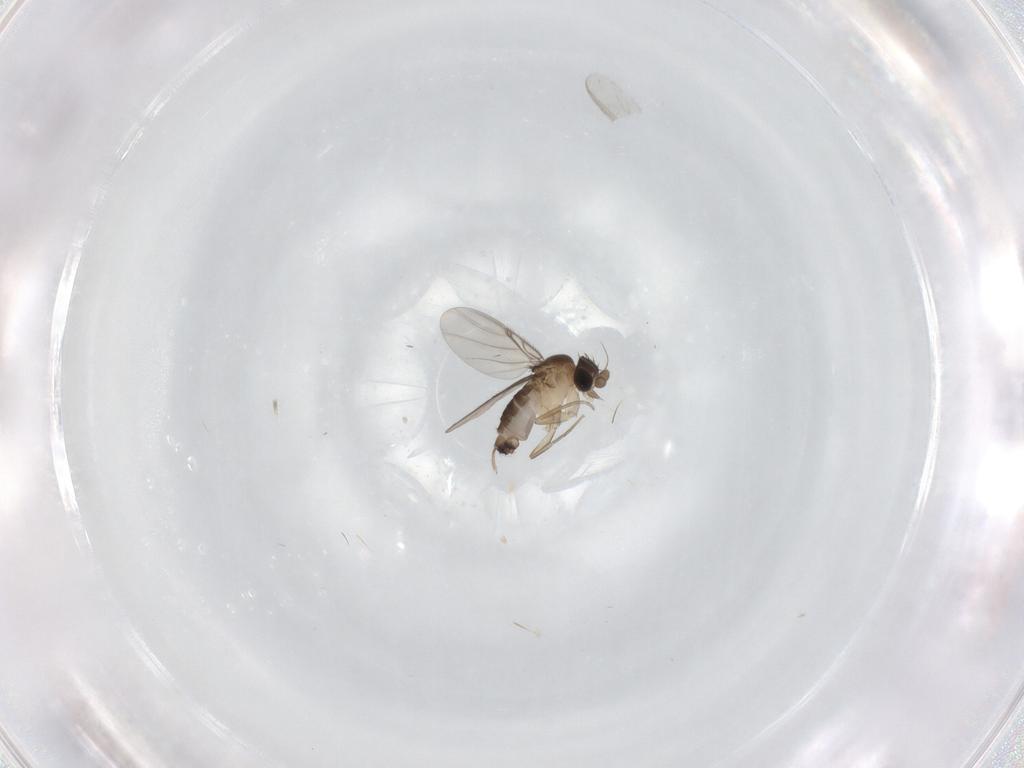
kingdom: Animalia
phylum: Arthropoda
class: Insecta
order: Diptera
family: Phoridae
